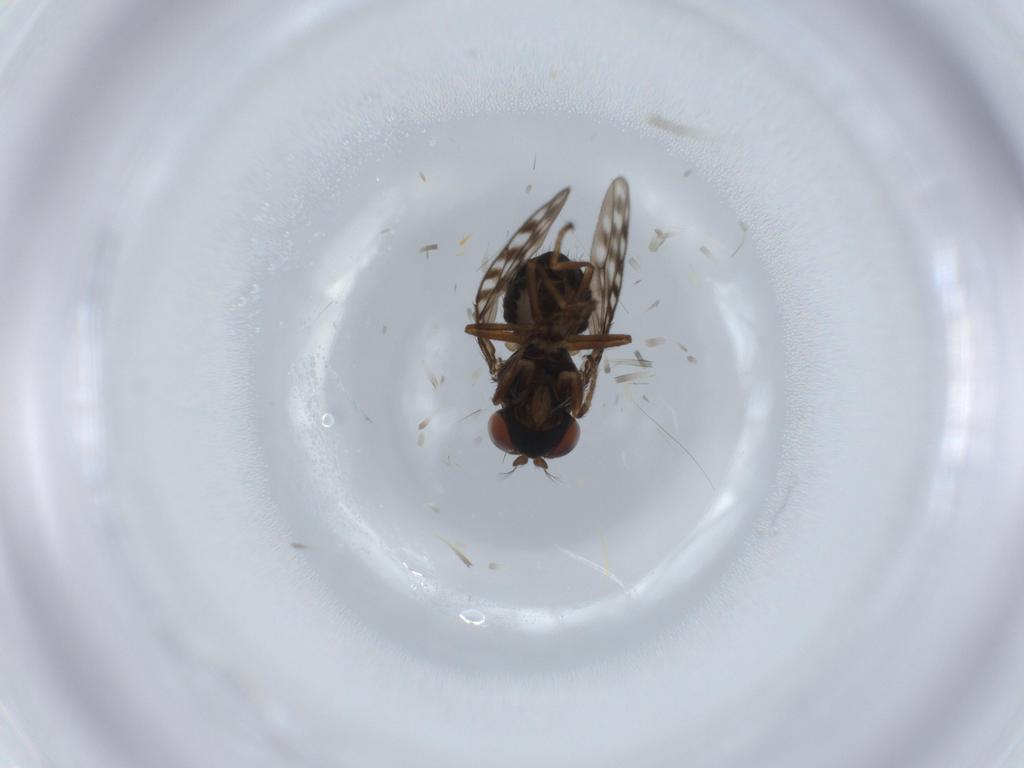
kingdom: Animalia
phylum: Arthropoda
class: Insecta
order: Diptera
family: Ephydridae
